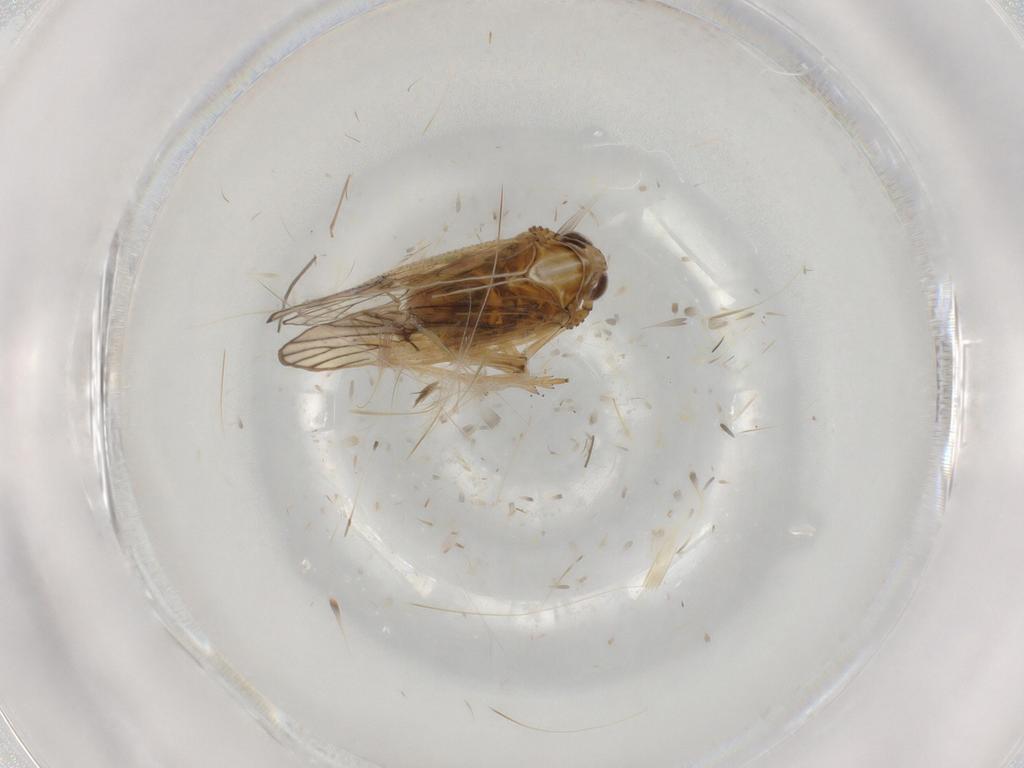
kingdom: Animalia
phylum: Arthropoda
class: Insecta
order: Hemiptera
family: Delphacidae
